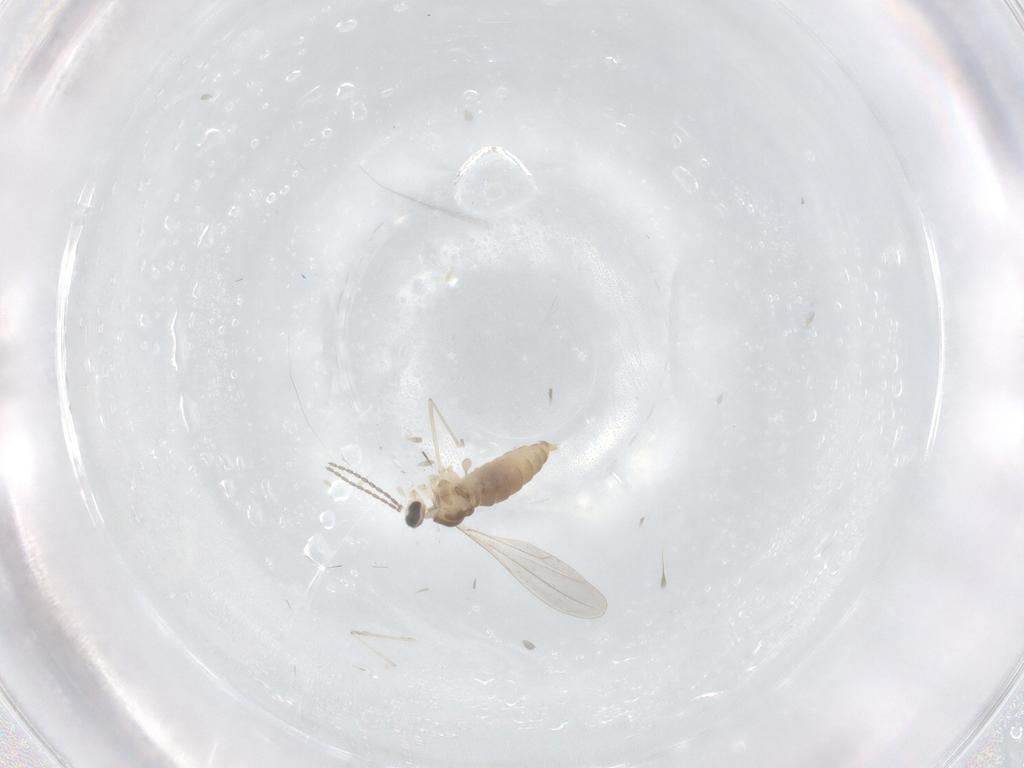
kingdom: Animalia
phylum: Arthropoda
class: Insecta
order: Diptera
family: Cecidomyiidae
